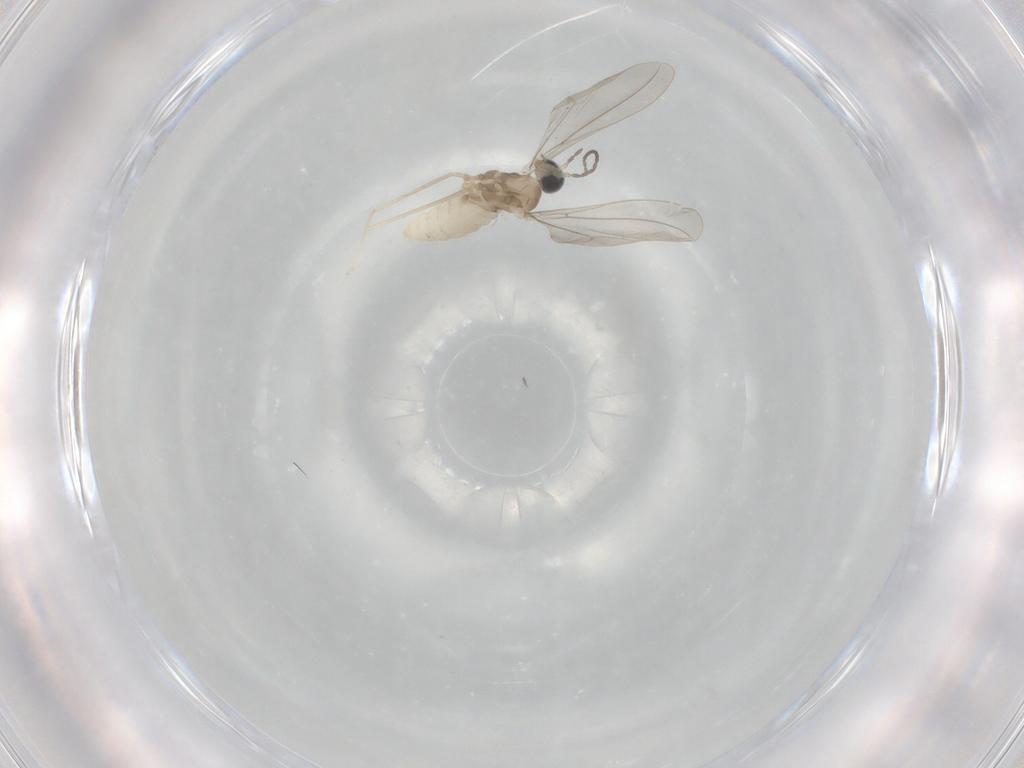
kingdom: Animalia
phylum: Arthropoda
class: Insecta
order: Diptera
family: Cecidomyiidae
